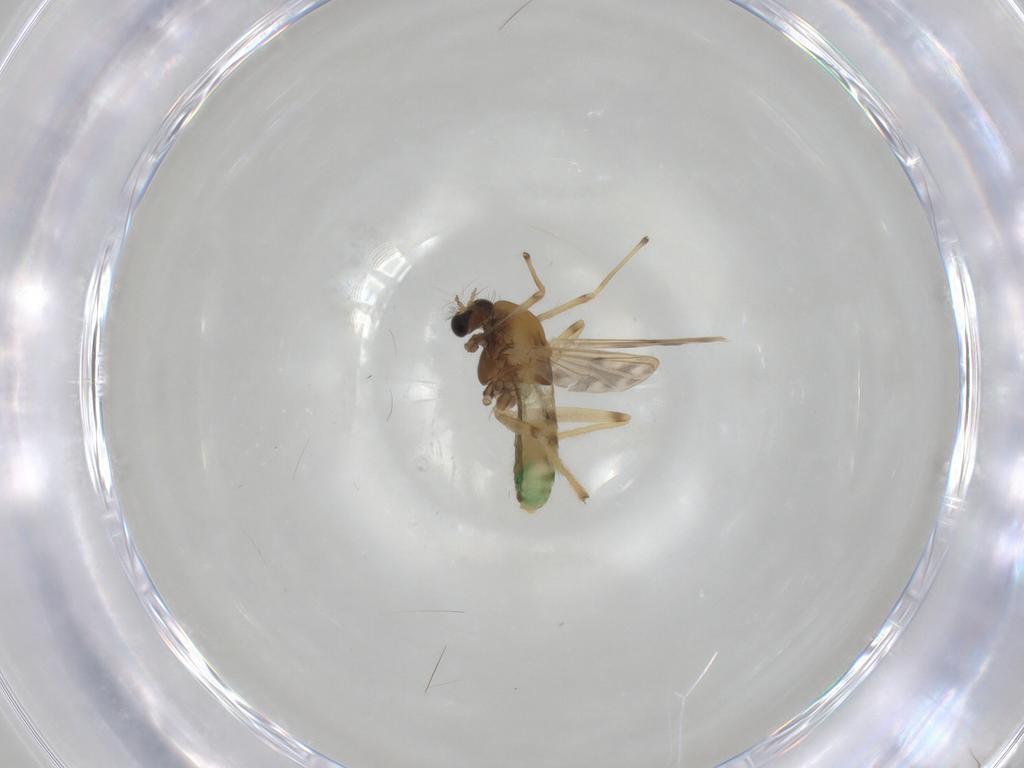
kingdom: Animalia
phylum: Arthropoda
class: Insecta
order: Diptera
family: Chironomidae
